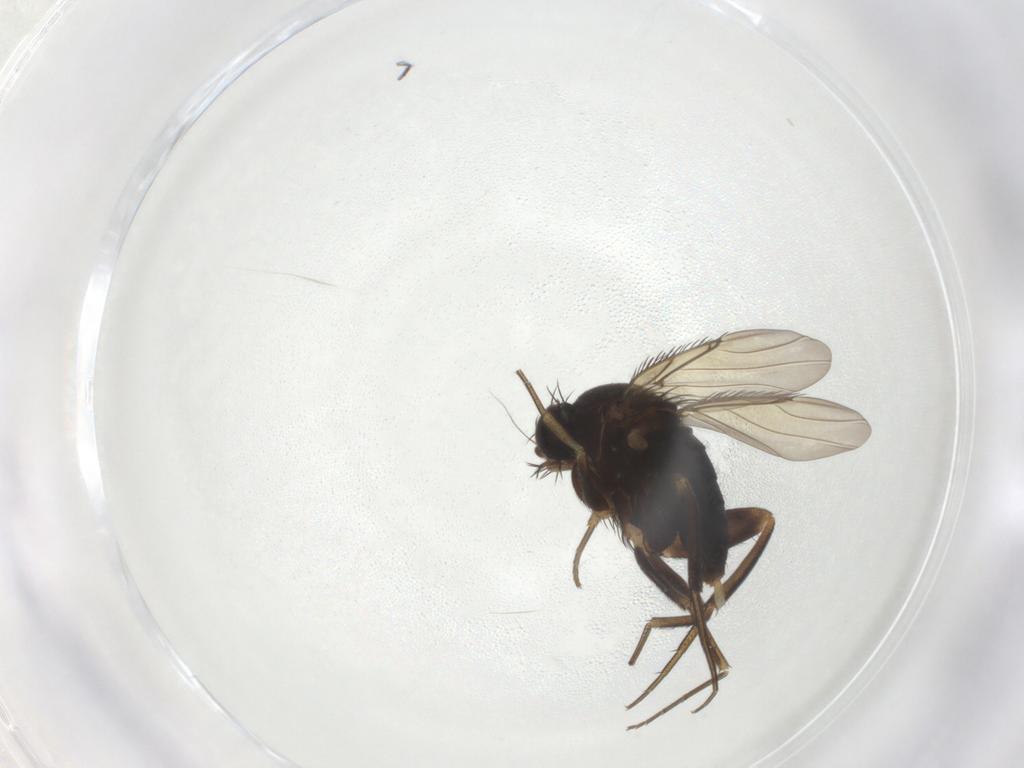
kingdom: Animalia
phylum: Arthropoda
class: Insecta
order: Diptera
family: Phoridae
